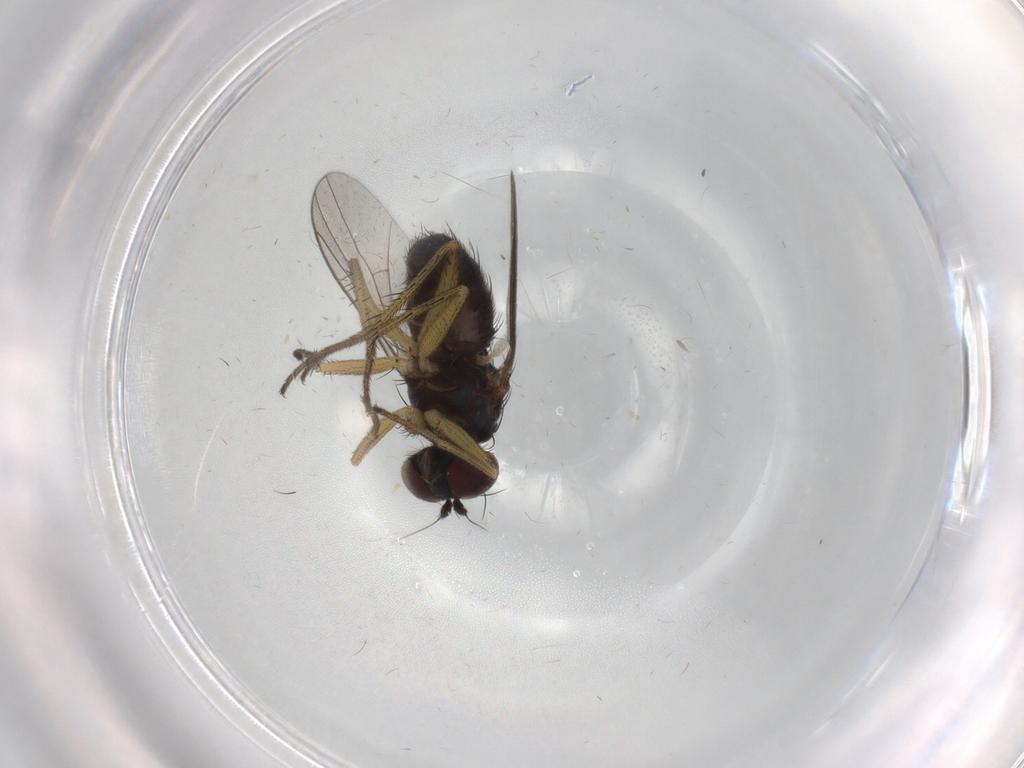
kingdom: Animalia
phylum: Arthropoda
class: Insecta
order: Diptera
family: Dolichopodidae
